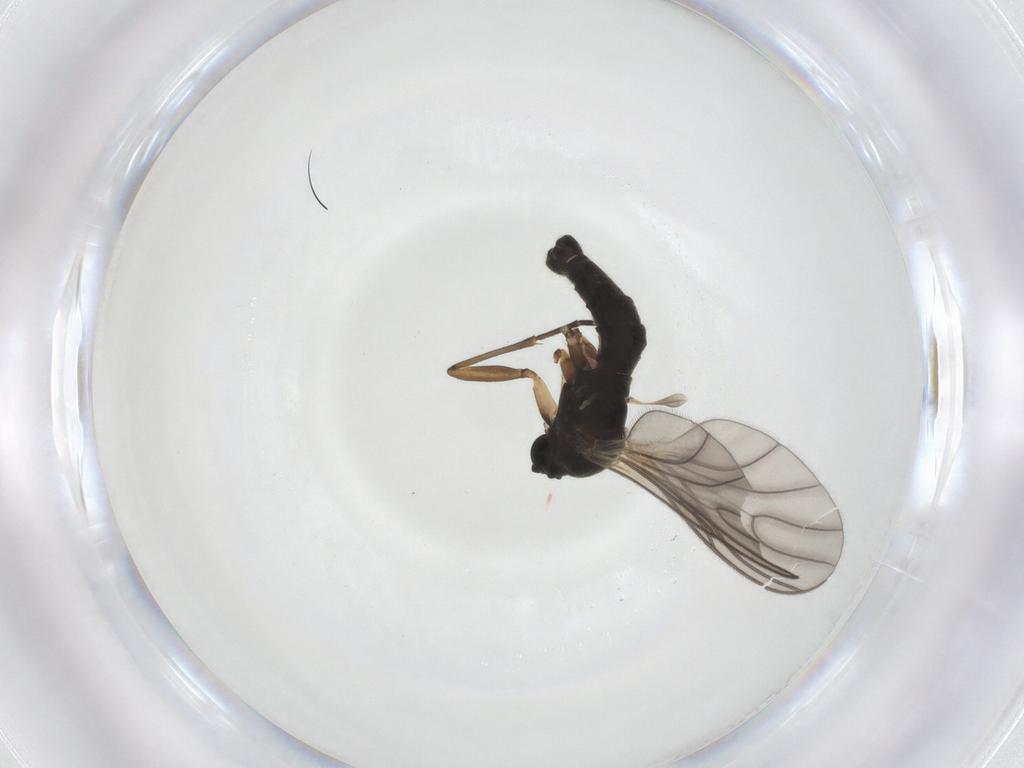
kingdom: Animalia
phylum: Arthropoda
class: Insecta
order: Diptera
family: Sciaridae
